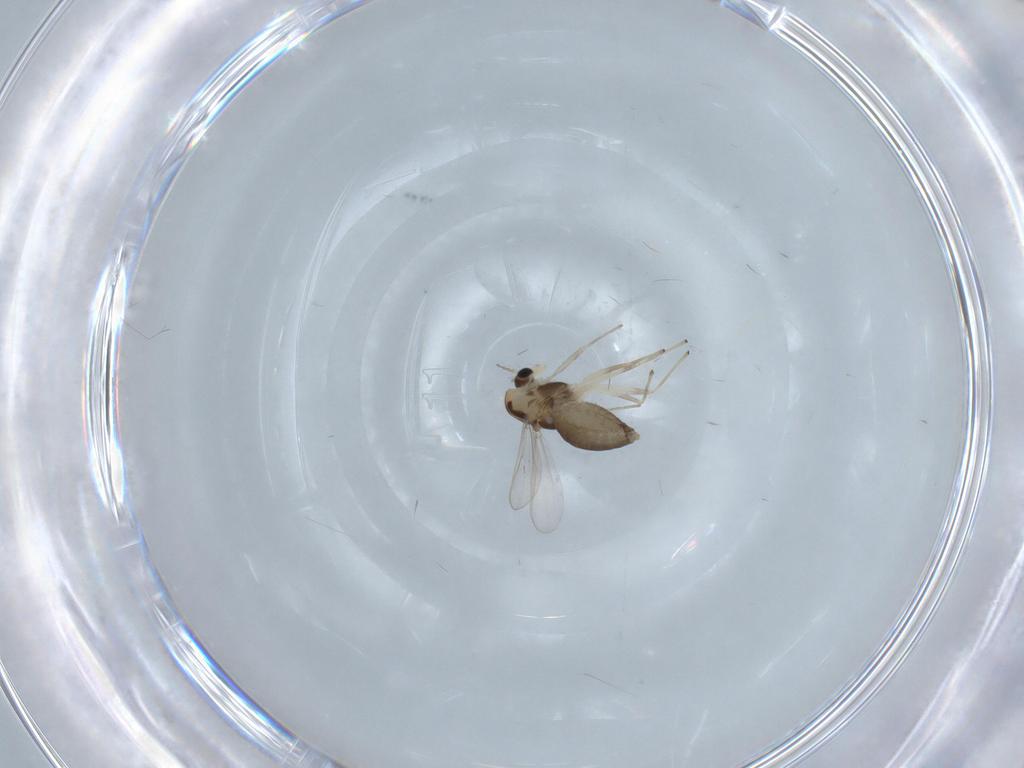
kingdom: Animalia
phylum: Arthropoda
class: Insecta
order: Diptera
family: Chironomidae
